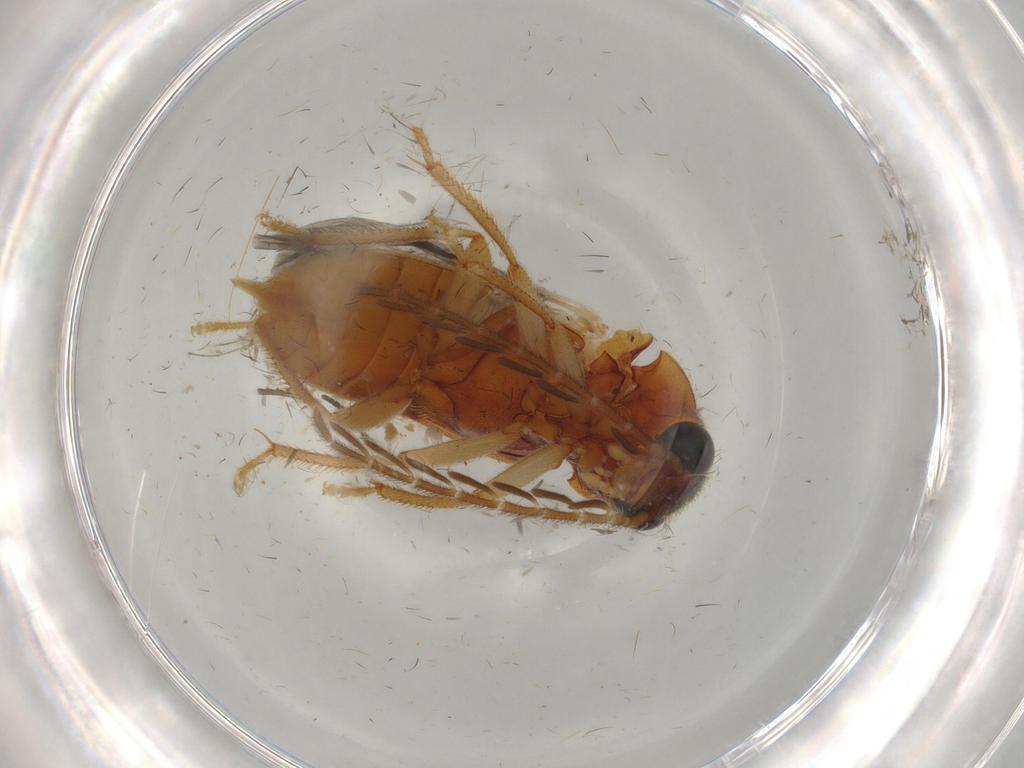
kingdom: Animalia
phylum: Arthropoda
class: Insecta
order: Coleoptera
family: Ptilodactylidae
